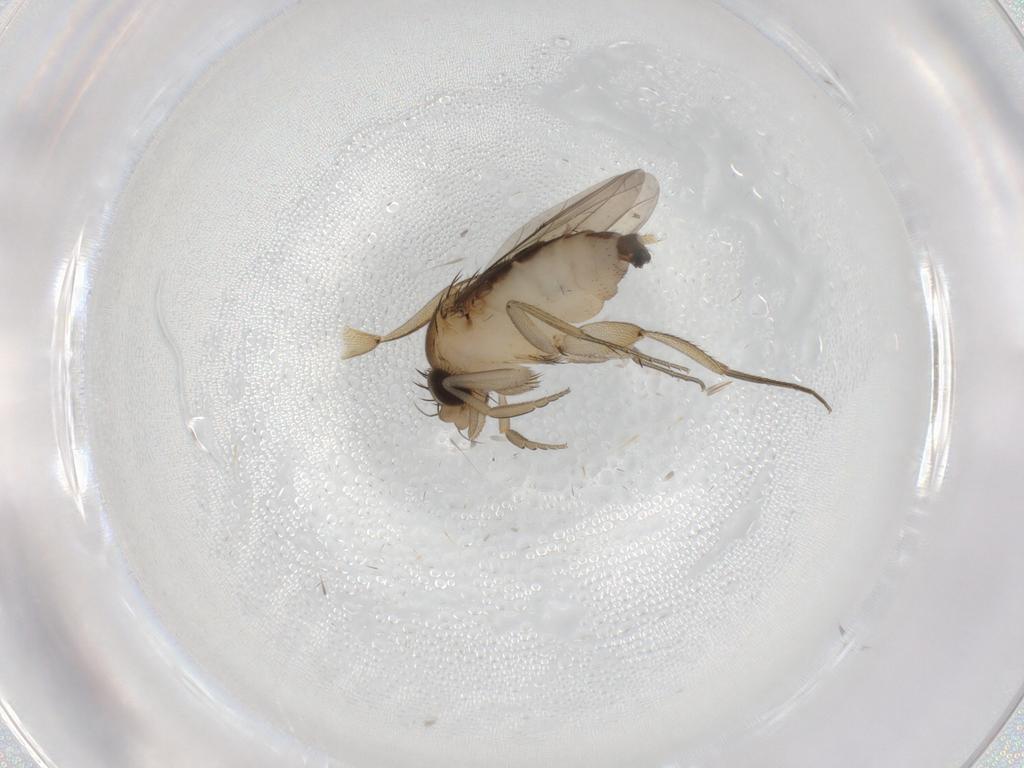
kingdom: Animalia
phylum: Arthropoda
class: Insecta
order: Diptera
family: Phoridae
